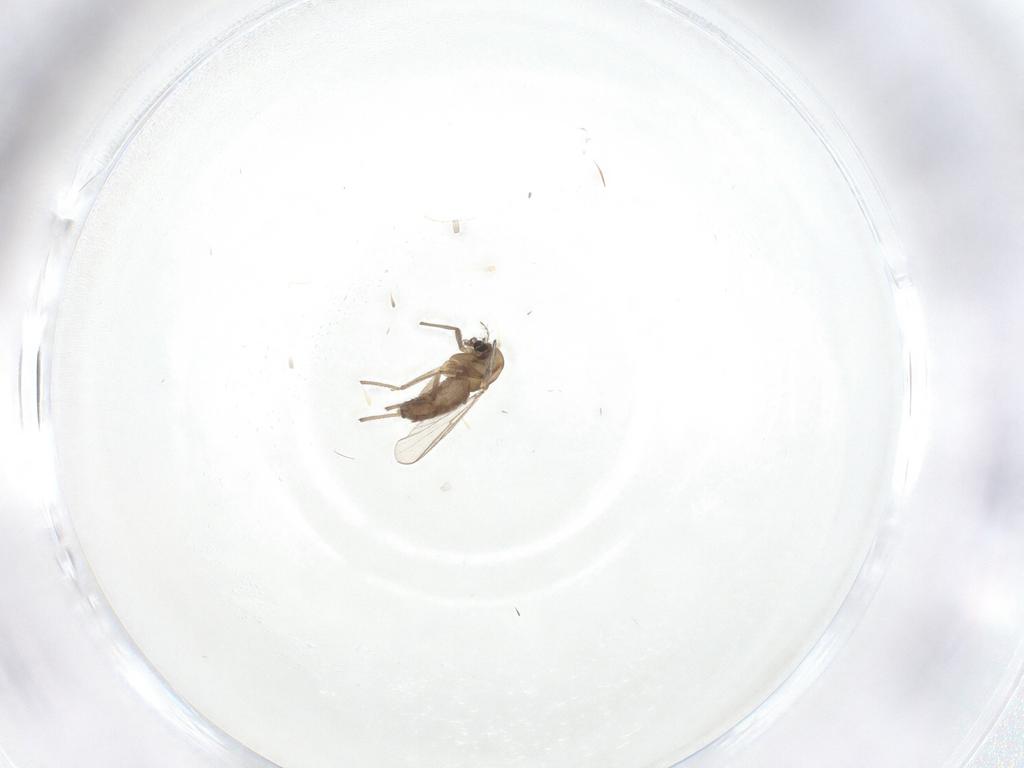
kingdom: Animalia
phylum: Arthropoda
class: Insecta
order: Diptera
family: Chironomidae
